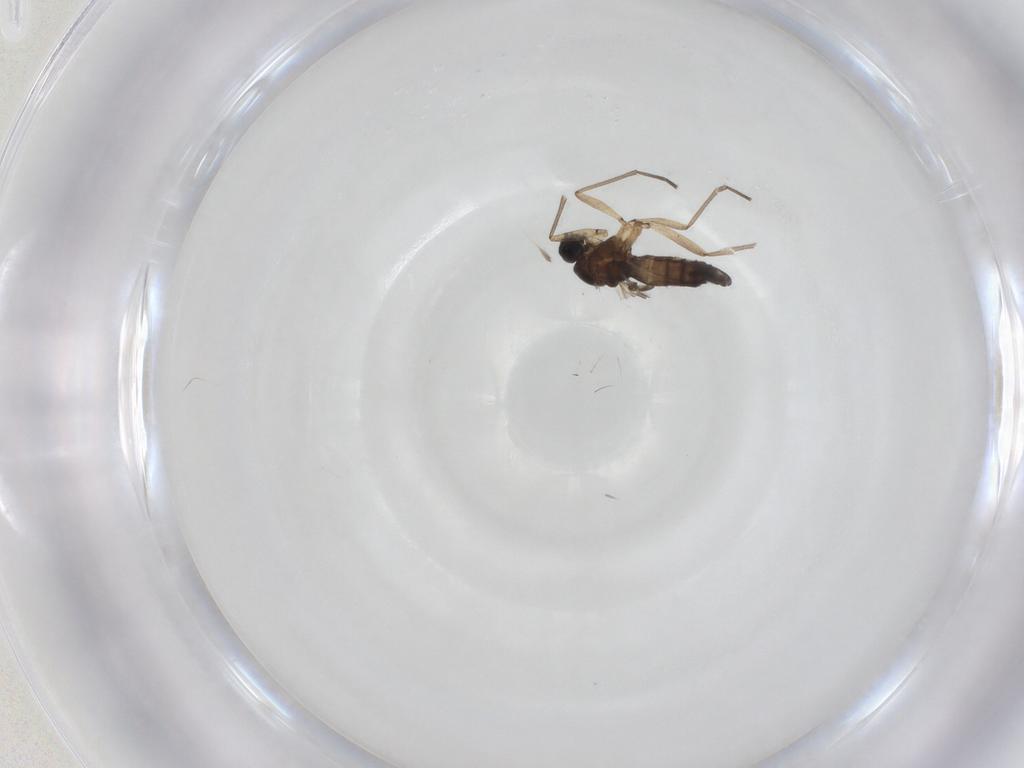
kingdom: Animalia
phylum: Arthropoda
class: Insecta
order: Diptera
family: Sciaridae
